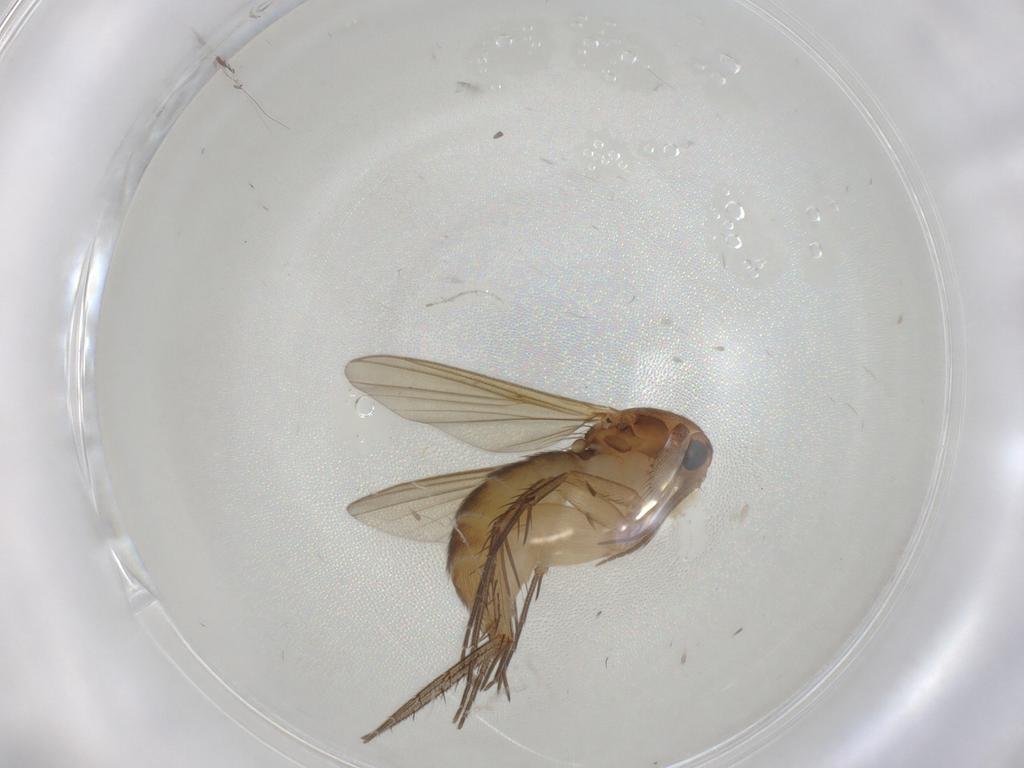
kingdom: Animalia
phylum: Arthropoda
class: Insecta
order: Diptera
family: Mycetophilidae
